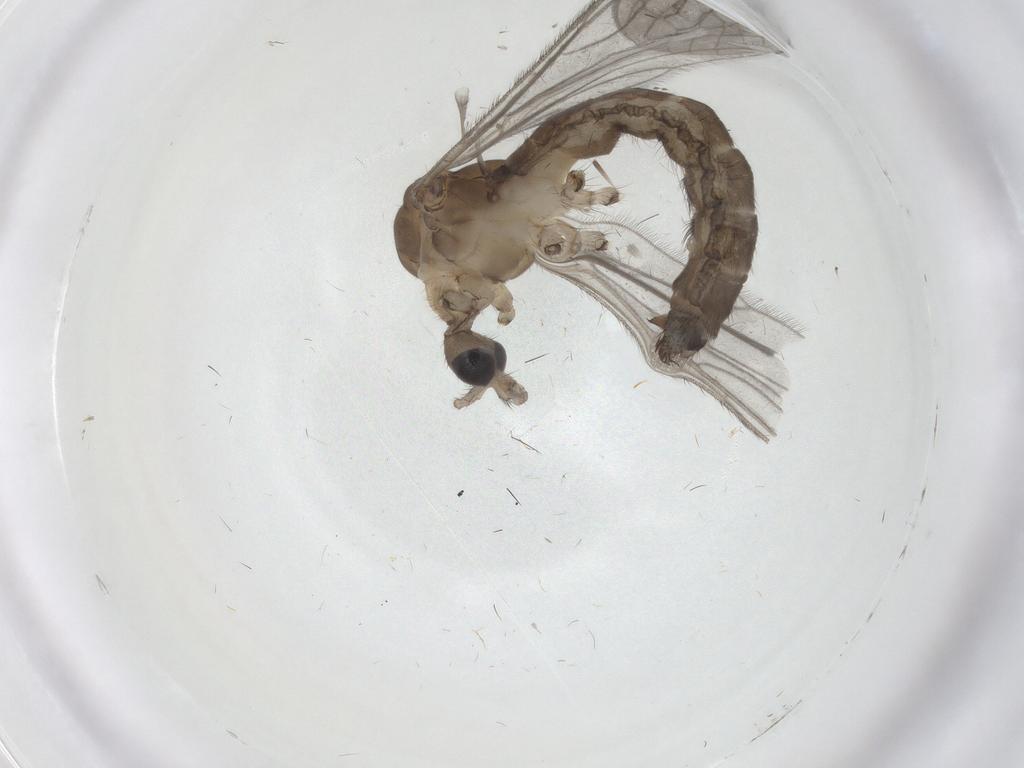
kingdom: Animalia
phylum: Arthropoda
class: Insecta
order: Diptera
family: Limoniidae
